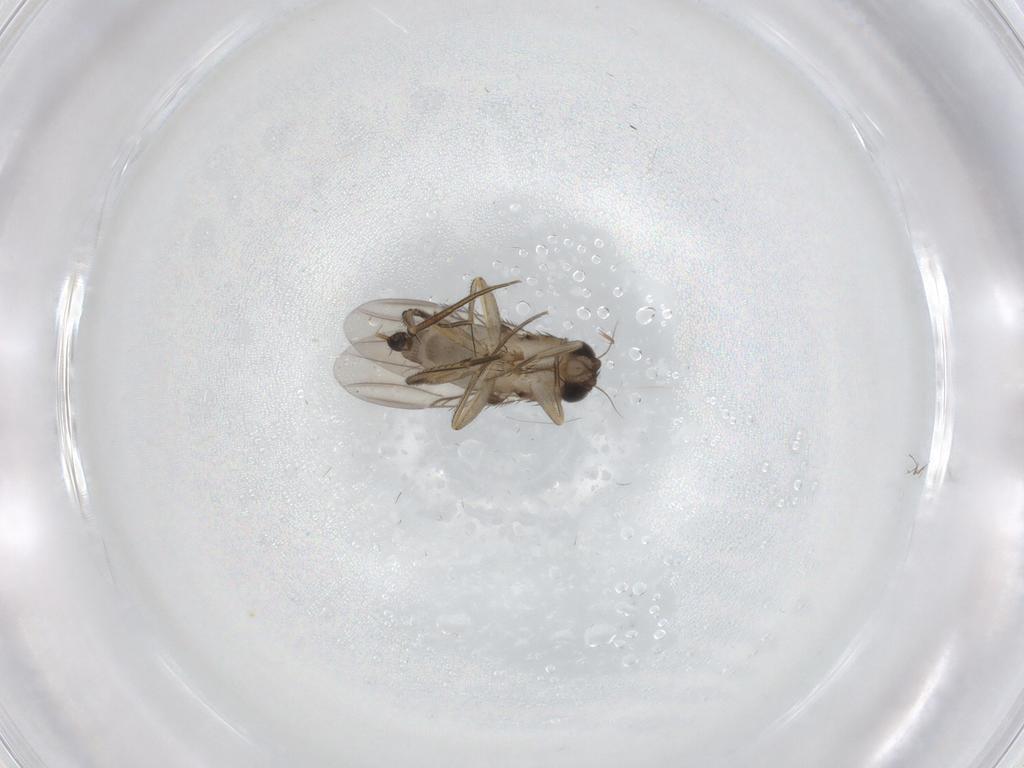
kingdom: Animalia
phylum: Arthropoda
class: Insecta
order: Diptera
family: Phoridae
